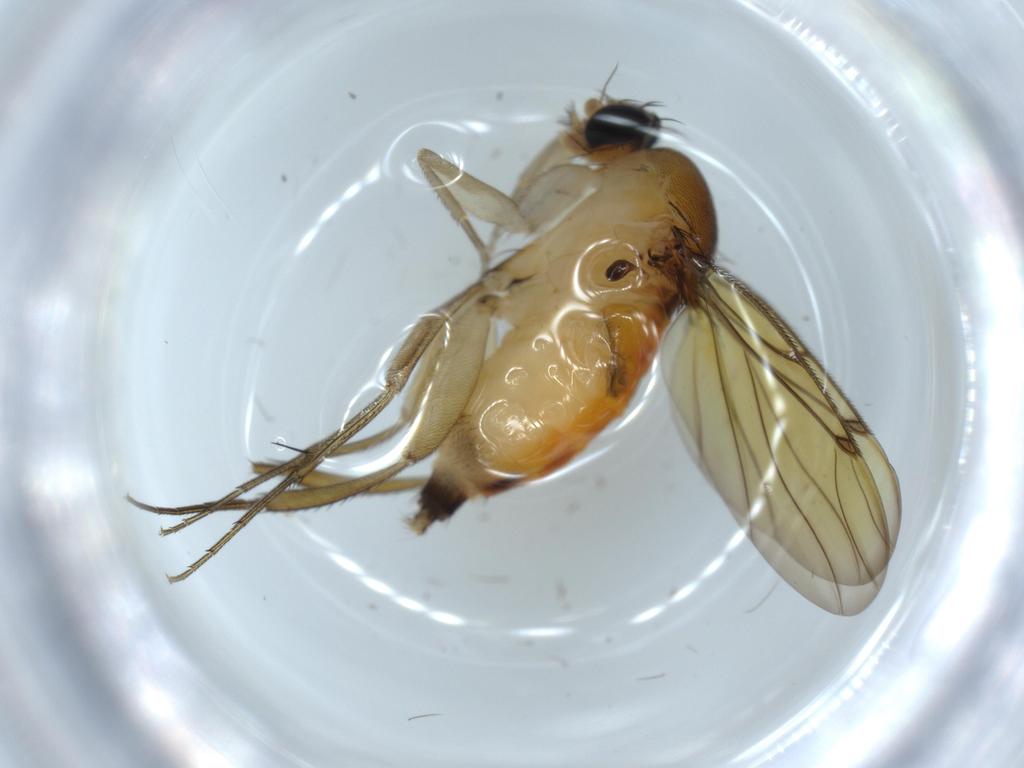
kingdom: Animalia
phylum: Arthropoda
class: Insecta
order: Diptera
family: Phoridae
